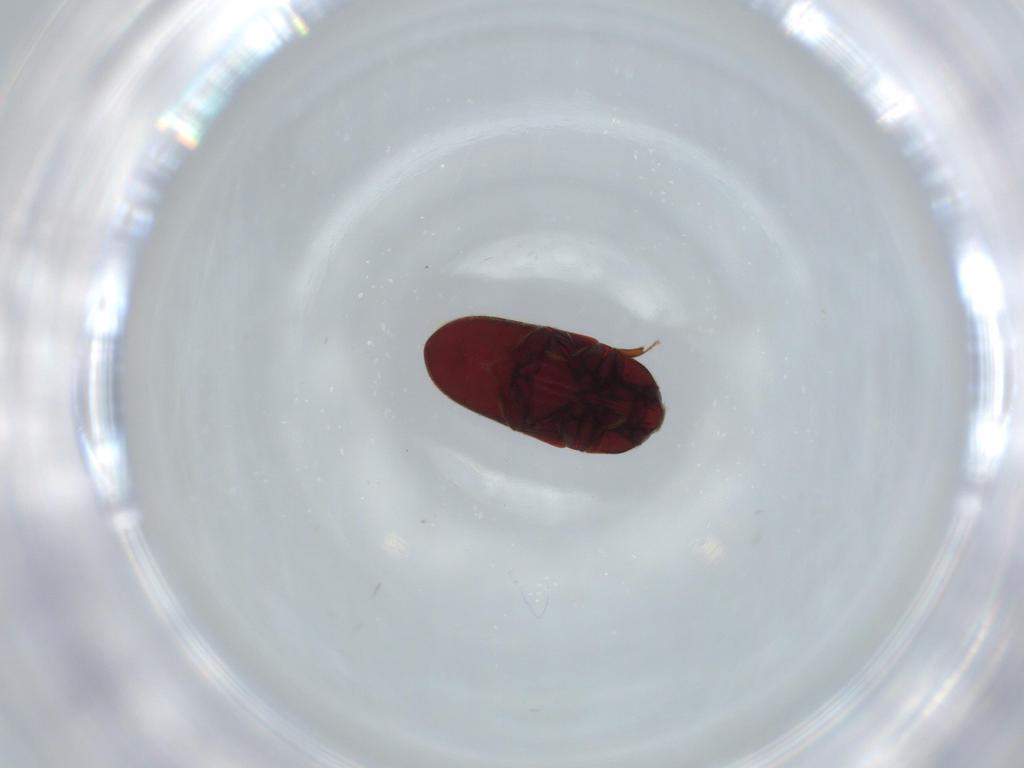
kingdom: Animalia
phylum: Arthropoda
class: Insecta
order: Coleoptera
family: Throscidae
